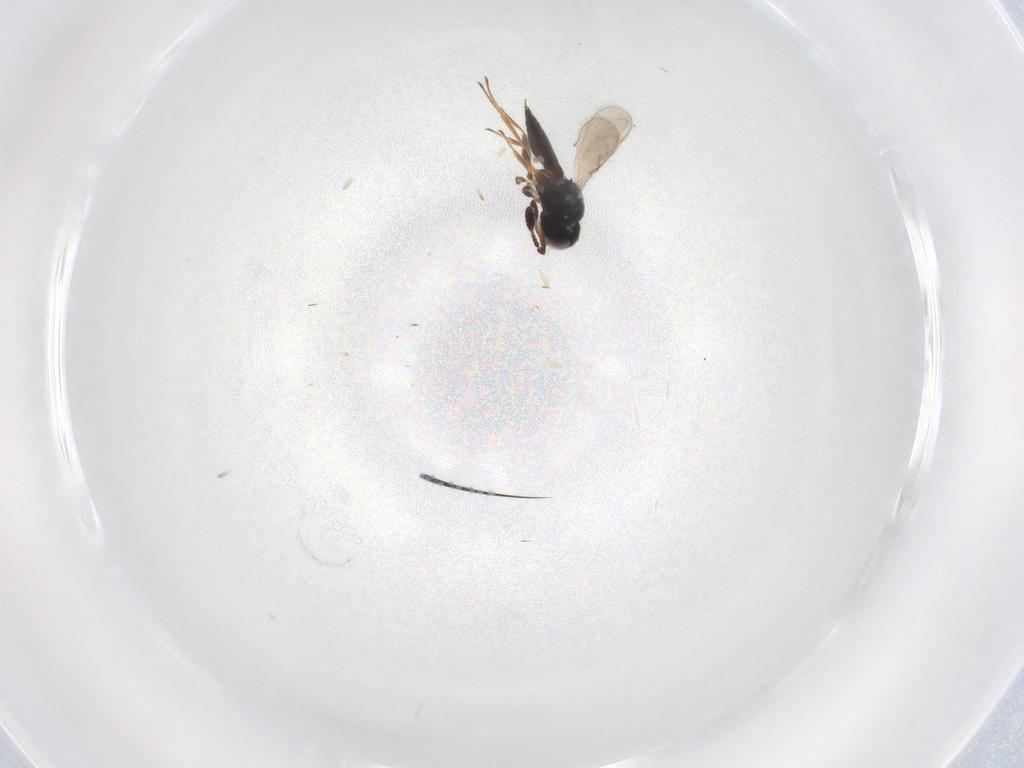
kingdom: Animalia
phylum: Arthropoda
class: Insecta
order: Hymenoptera
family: Scelionidae
